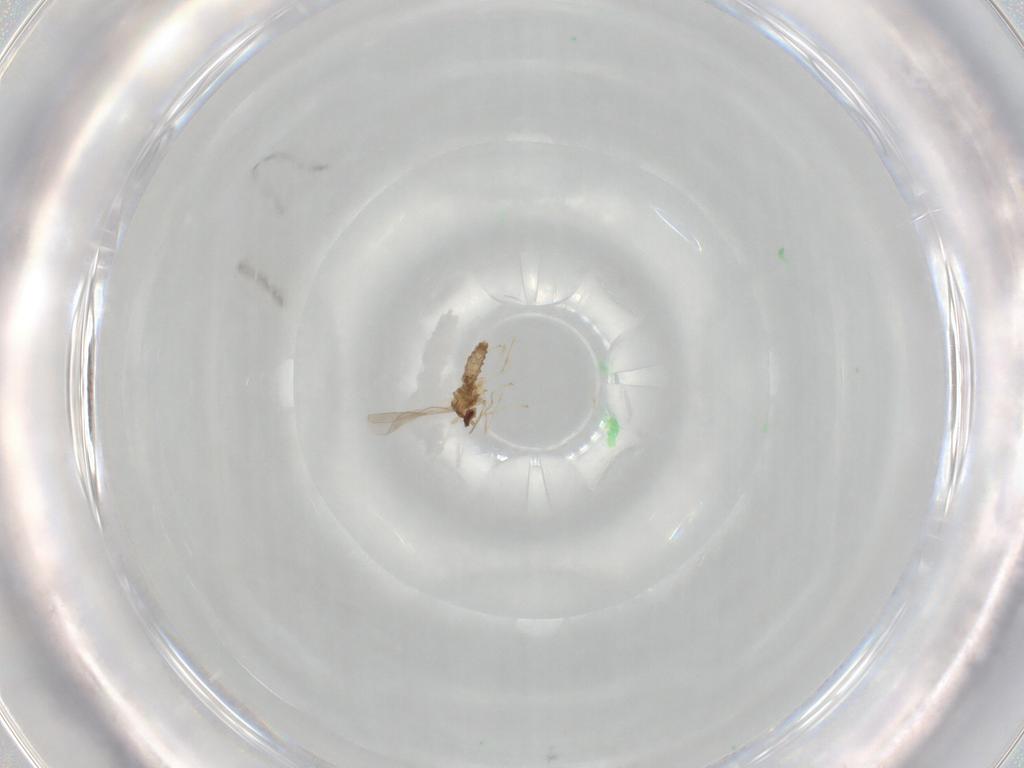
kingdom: Animalia
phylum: Arthropoda
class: Insecta
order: Diptera
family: Cecidomyiidae
